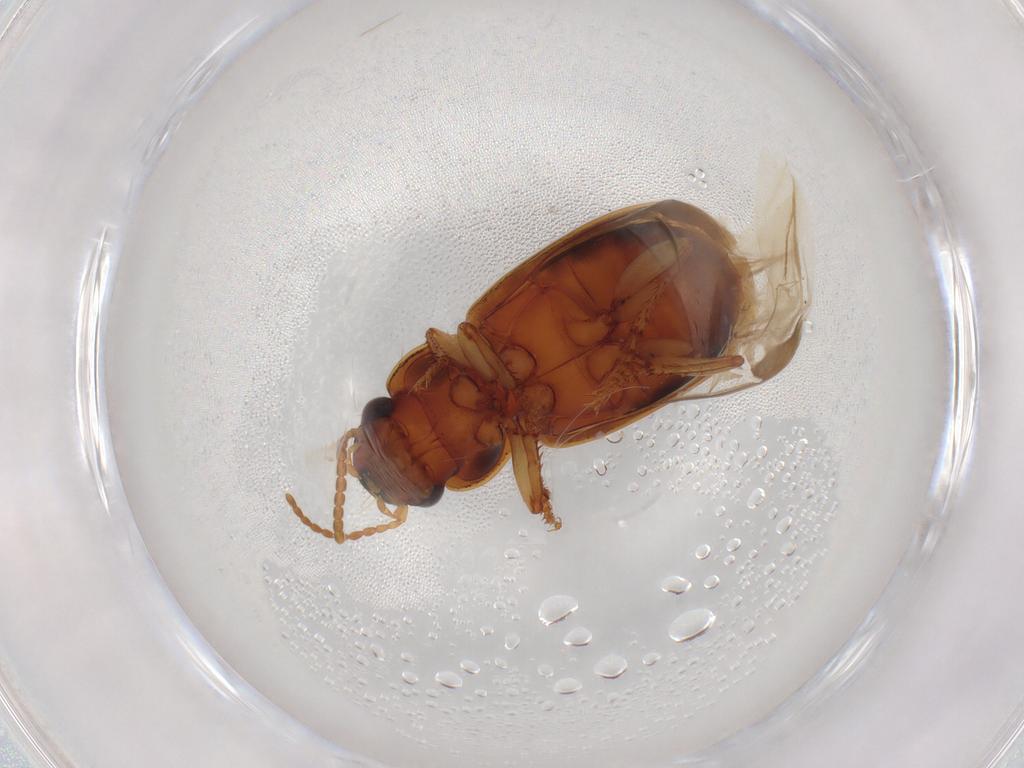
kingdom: Animalia
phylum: Arthropoda
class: Insecta
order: Coleoptera
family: Carabidae
